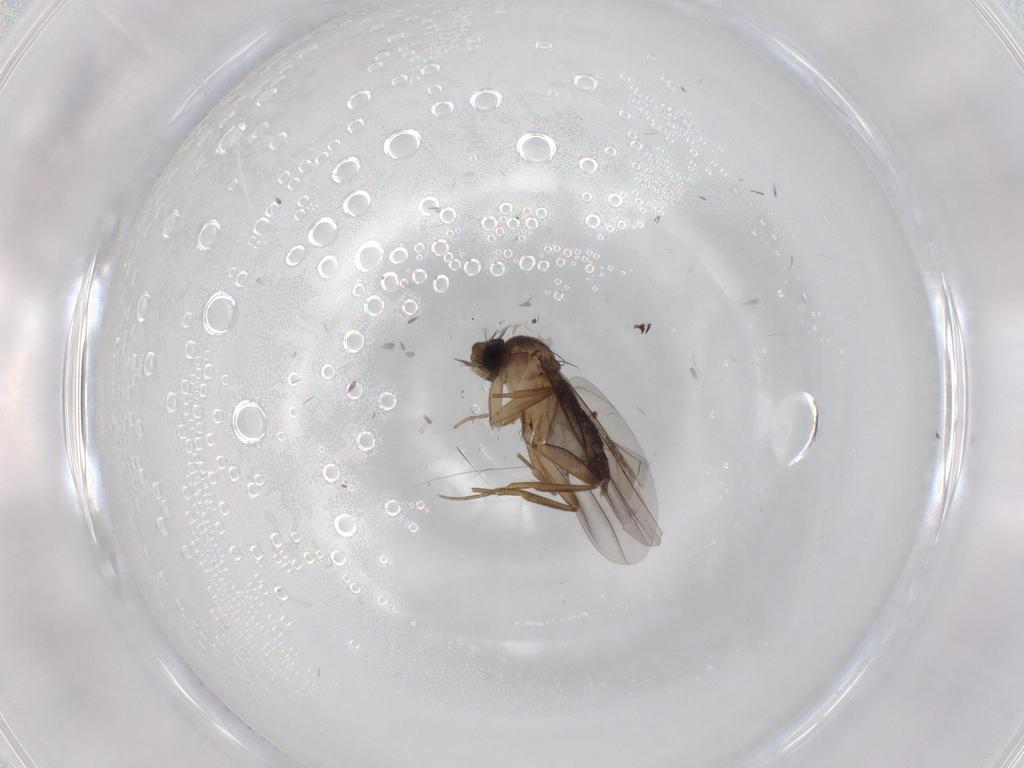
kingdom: Animalia
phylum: Arthropoda
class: Insecta
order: Diptera
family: Phoridae
